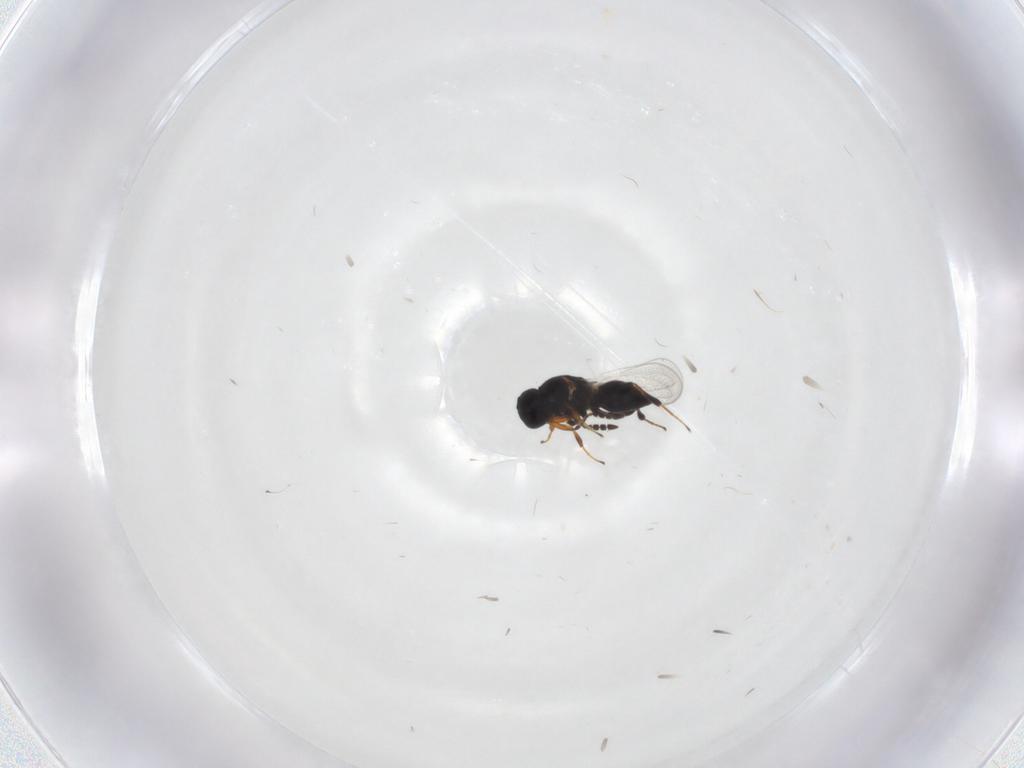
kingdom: Animalia
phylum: Arthropoda
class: Insecta
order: Hymenoptera
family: Platygastridae
